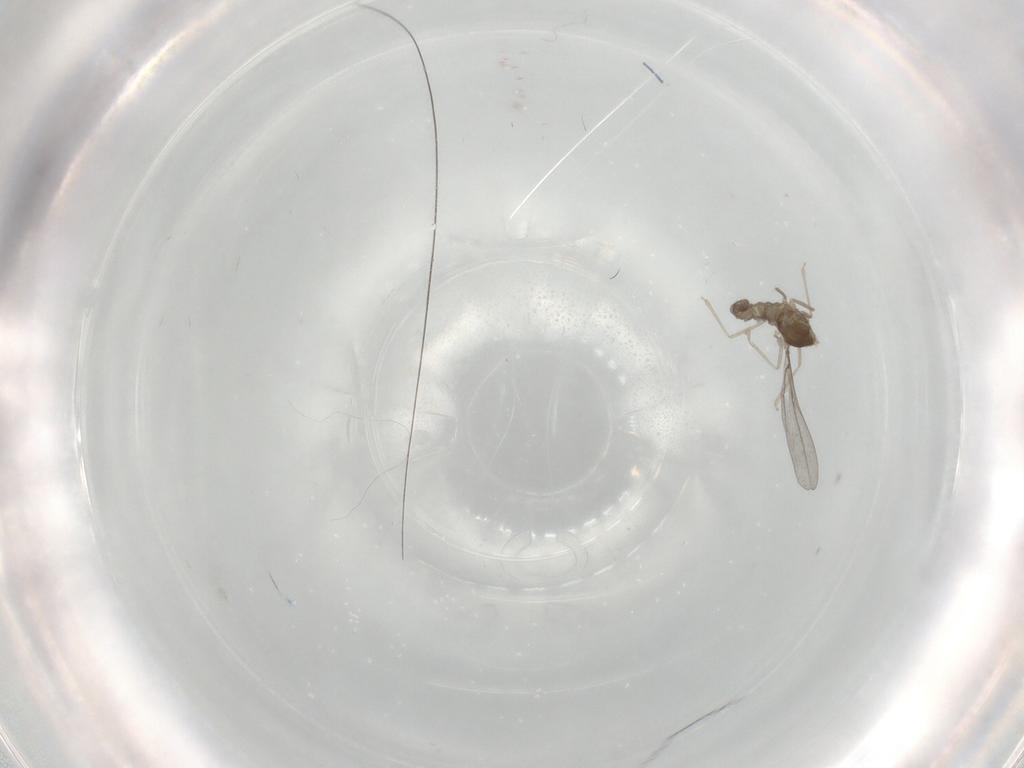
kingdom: Animalia
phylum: Arthropoda
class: Insecta
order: Diptera
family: Cecidomyiidae
